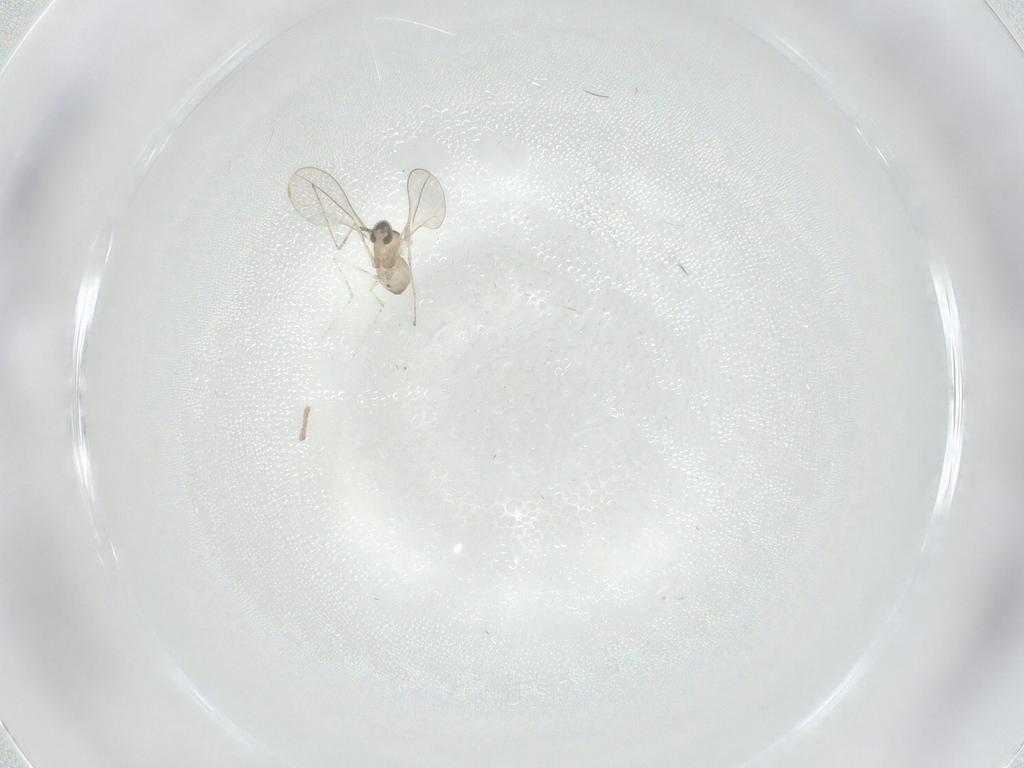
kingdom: Animalia
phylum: Arthropoda
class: Insecta
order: Diptera
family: Cecidomyiidae
